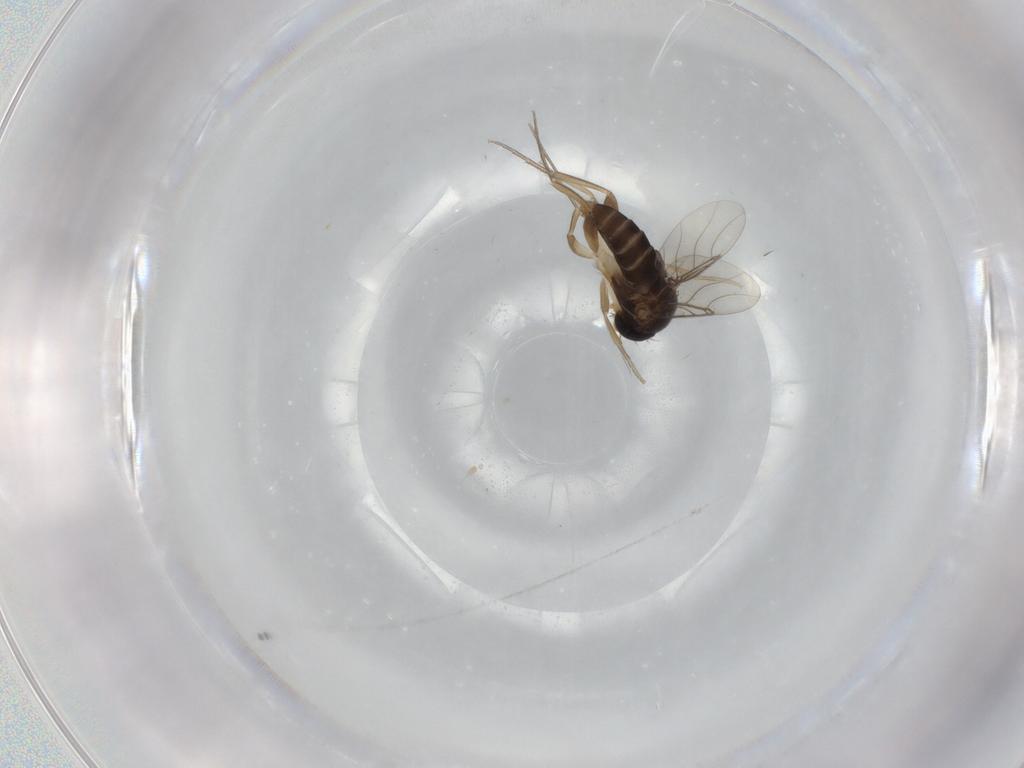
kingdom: Animalia
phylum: Arthropoda
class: Insecta
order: Diptera
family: Phoridae
